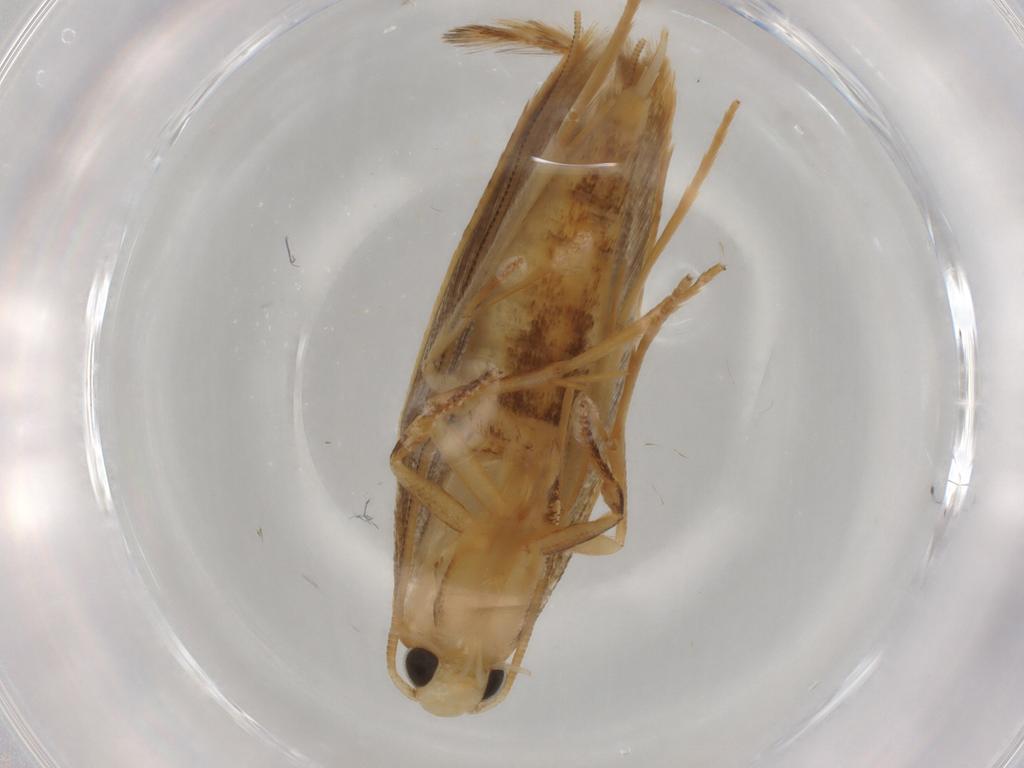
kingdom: Animalia
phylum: Arthropoda
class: Insecta
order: Lepidoptera
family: Tineidae
